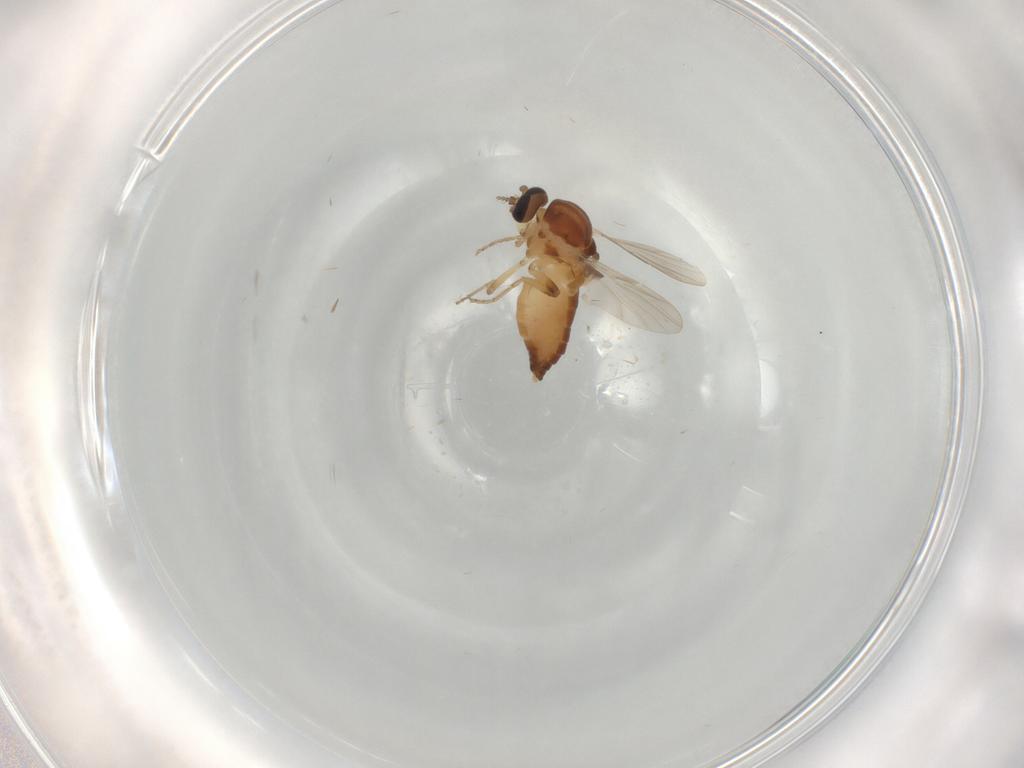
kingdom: Animalia
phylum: Arthropoda
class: Insecta
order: Diptera
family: Ceratopogonidae
